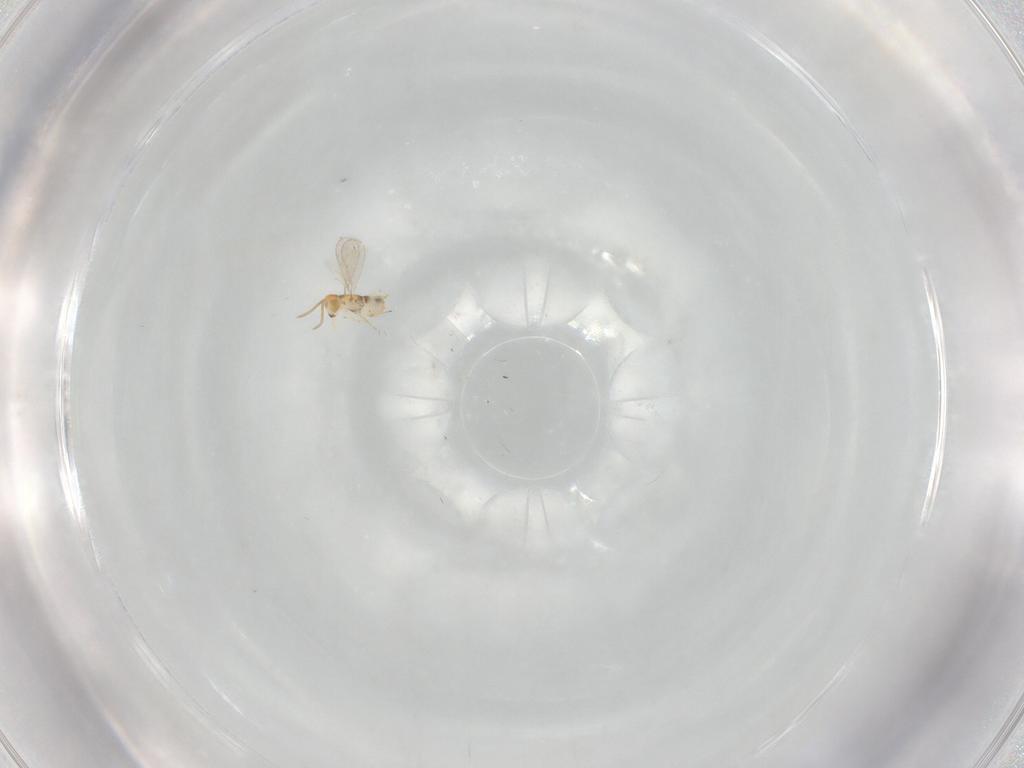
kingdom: Animalia
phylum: Arthropoda
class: Insecta
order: Hymenoptera
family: Aphelinidae
